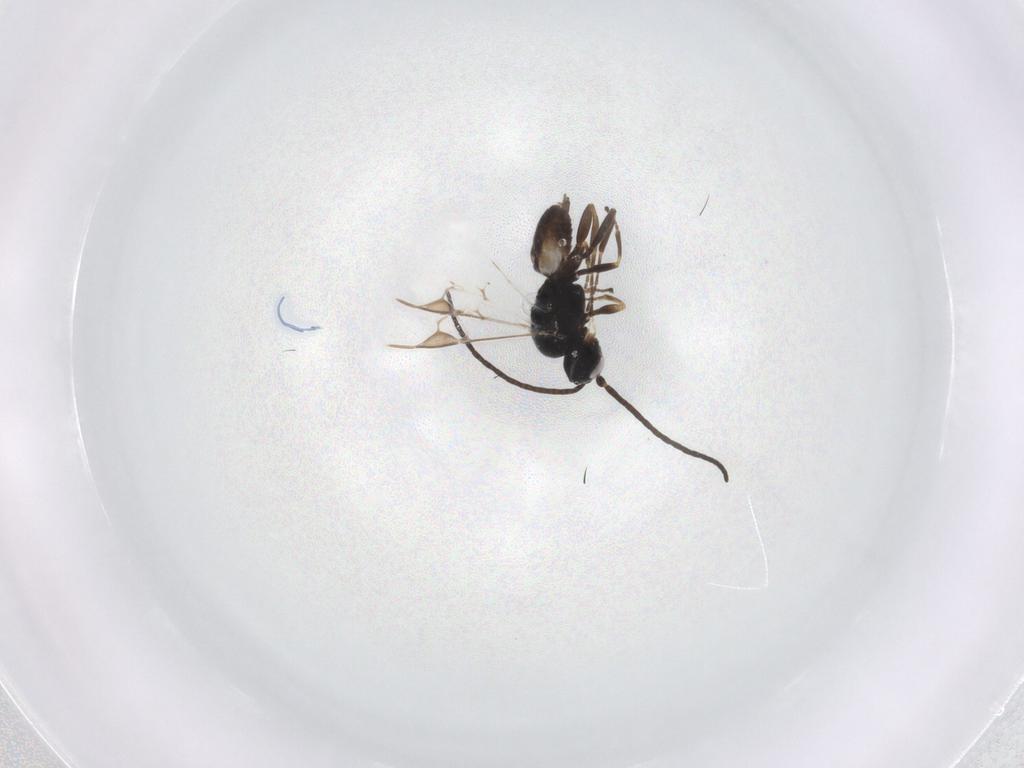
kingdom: Animalia
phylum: Arthropoda
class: Insecta
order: Hymenoptera
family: Braconidae
